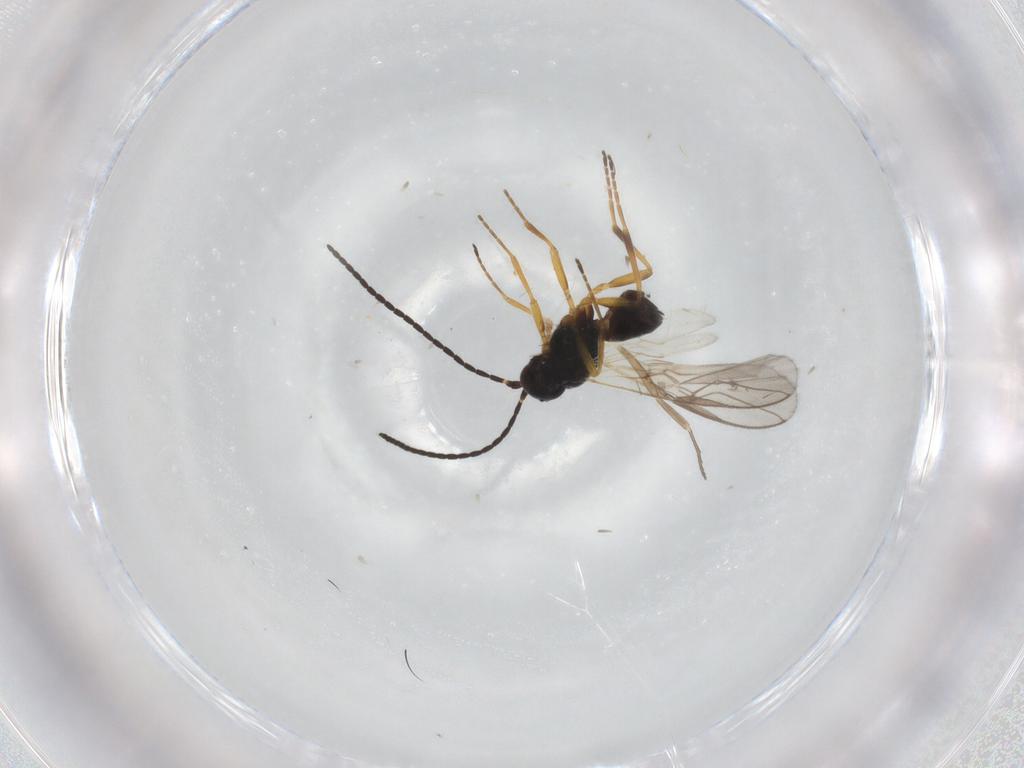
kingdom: Animalia
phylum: Arthropoda
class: Insecta
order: Hymenoptera
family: Braconidae
